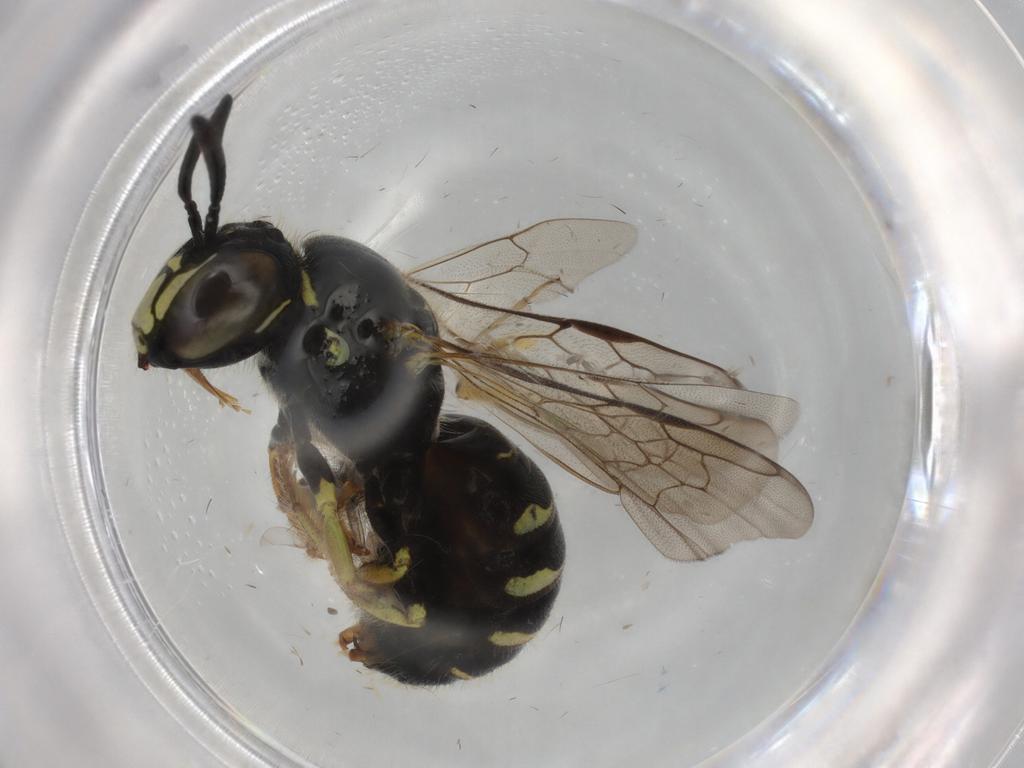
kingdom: Animalia
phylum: Arthropoda
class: Insecta
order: Hymenoptera
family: Apidae
